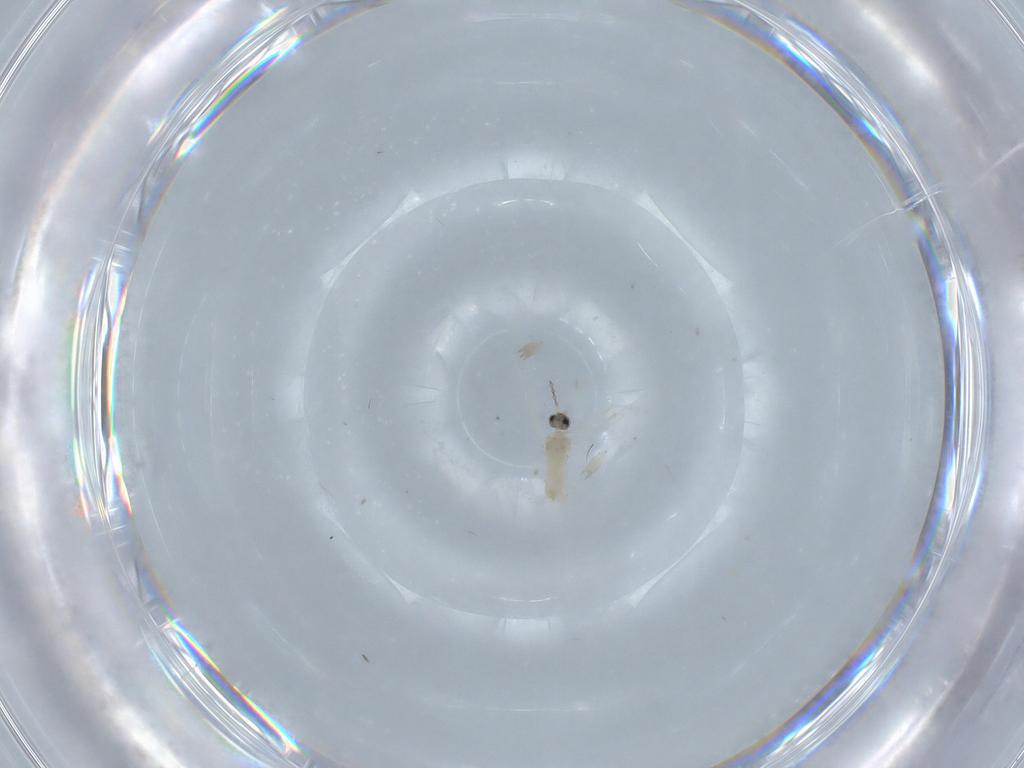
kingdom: Animalia
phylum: Arthropoda
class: Insecta
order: Diptera
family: Cecidomyiidae
